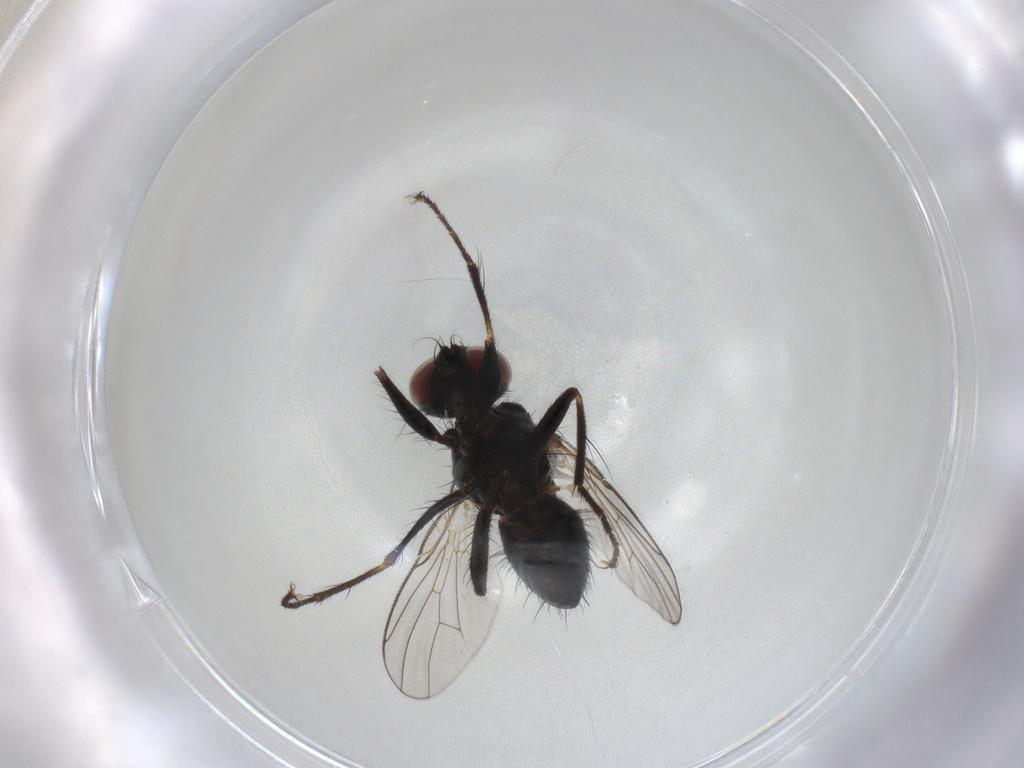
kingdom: Animalia
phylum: Arthropoda
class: Insecta
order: Diptera
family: Muscidae
